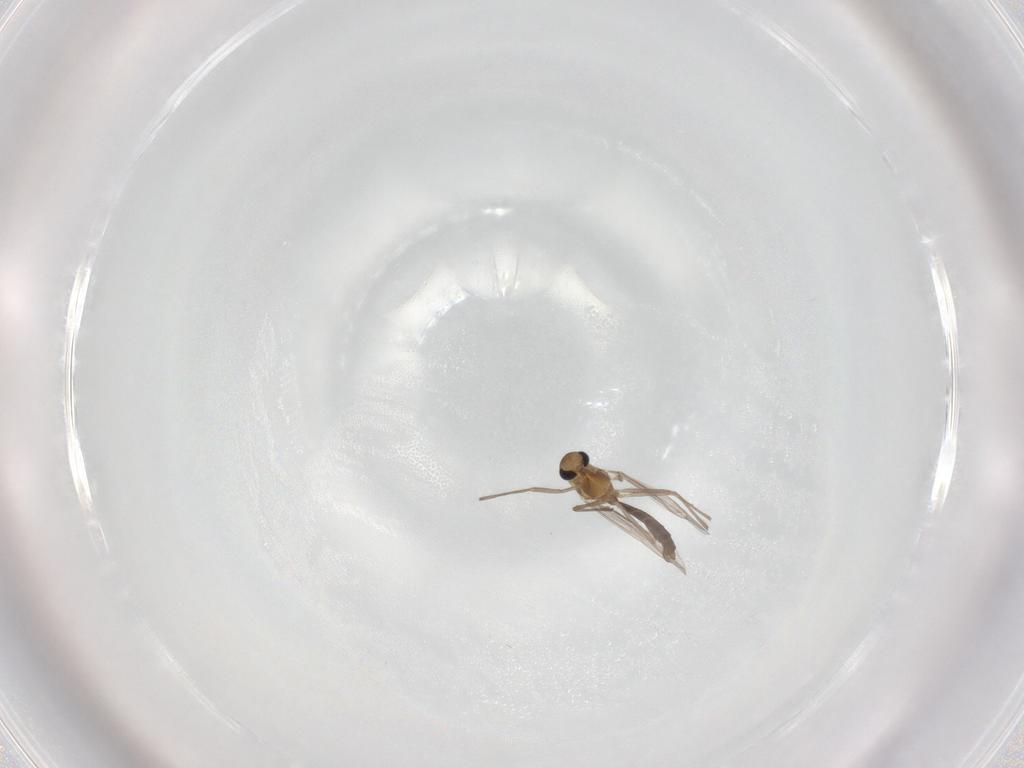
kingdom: Animalia
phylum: Arthropoda
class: Insecta
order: Diptera
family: Chironomidae
